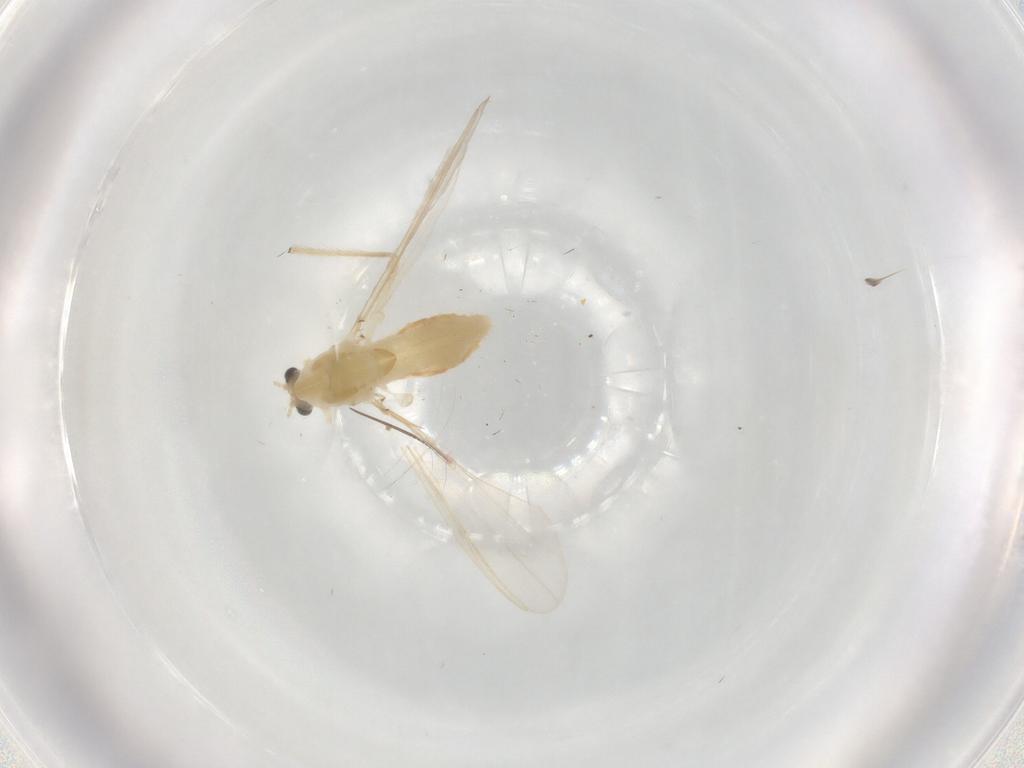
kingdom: Animalia
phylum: Arthropoda
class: Insecta
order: Diptera
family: Chironomidae
